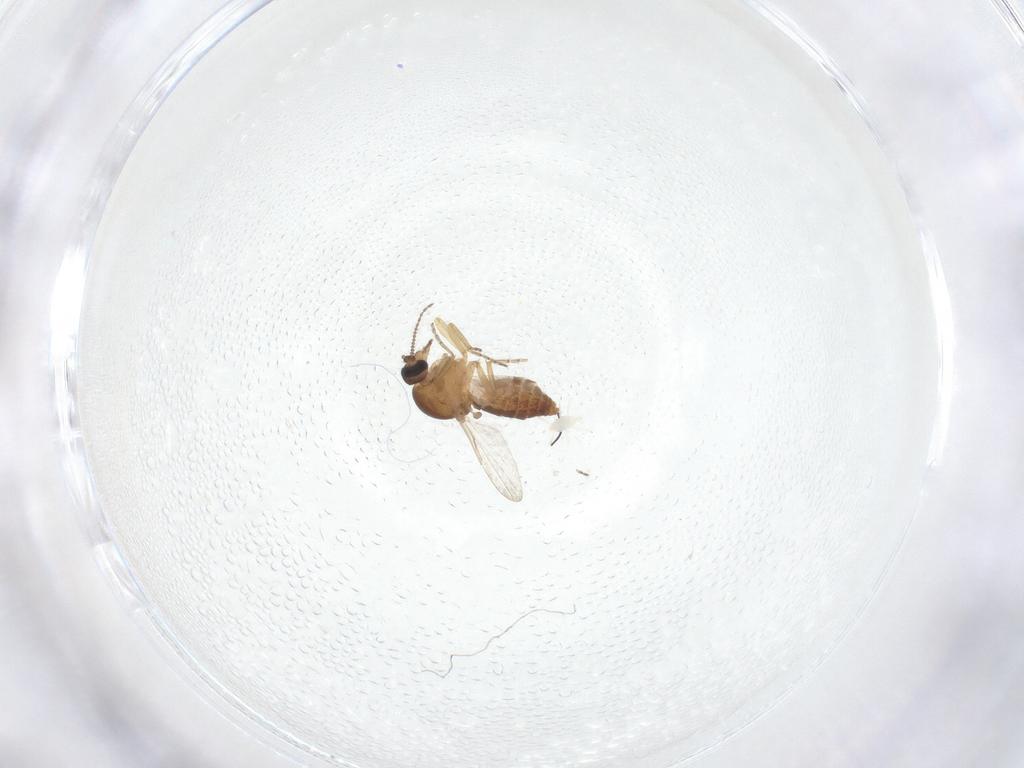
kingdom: Animalia
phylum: Arthropoda
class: Insecta
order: Diptera
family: Ceratopogonidae
